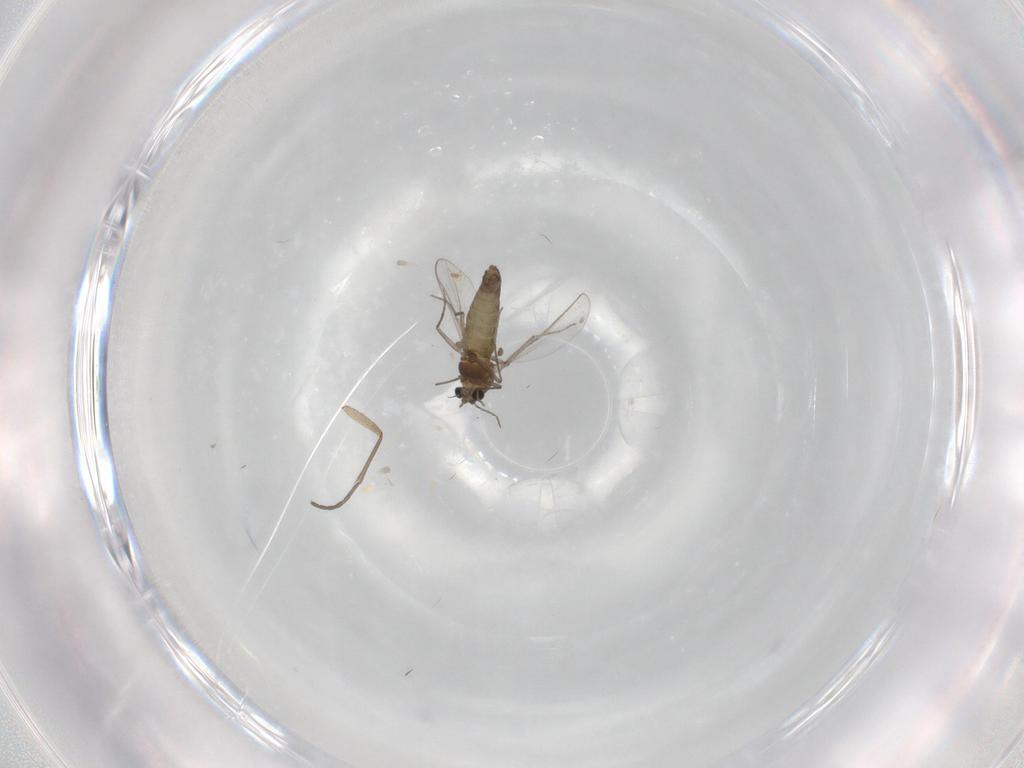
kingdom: Animalia
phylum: Arthropoda
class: Insecta
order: Diptera
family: Chironomidae
